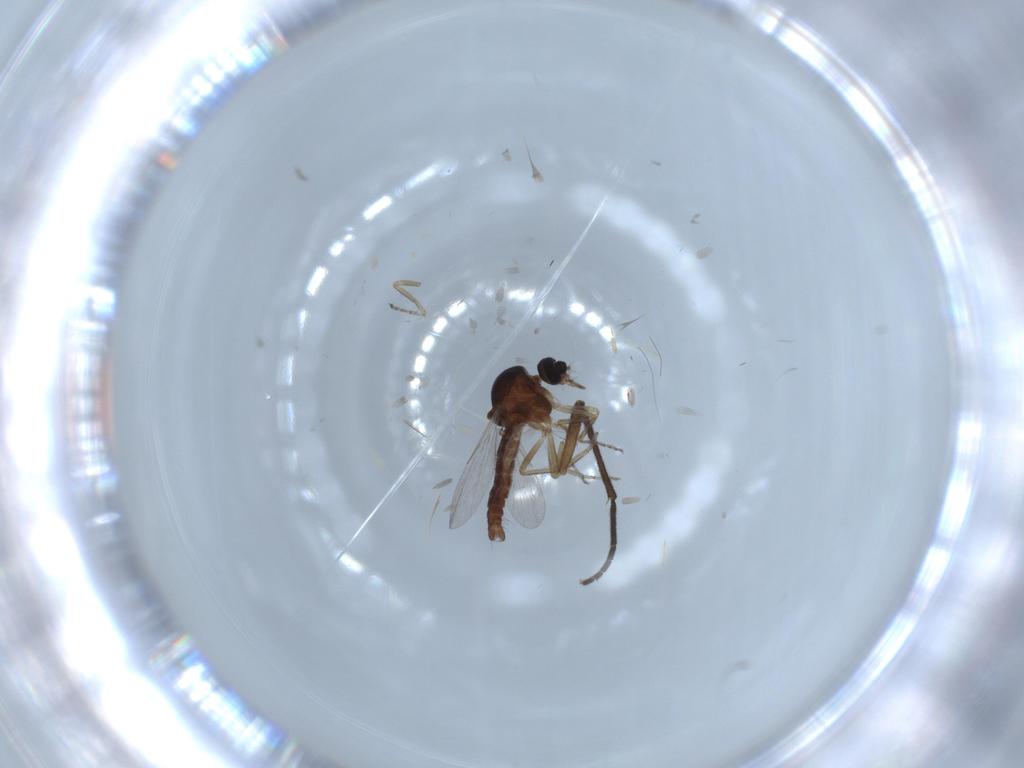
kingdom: Animalia
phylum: Arthropoda
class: Insecta
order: Diptera
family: Ceratopogonidae
